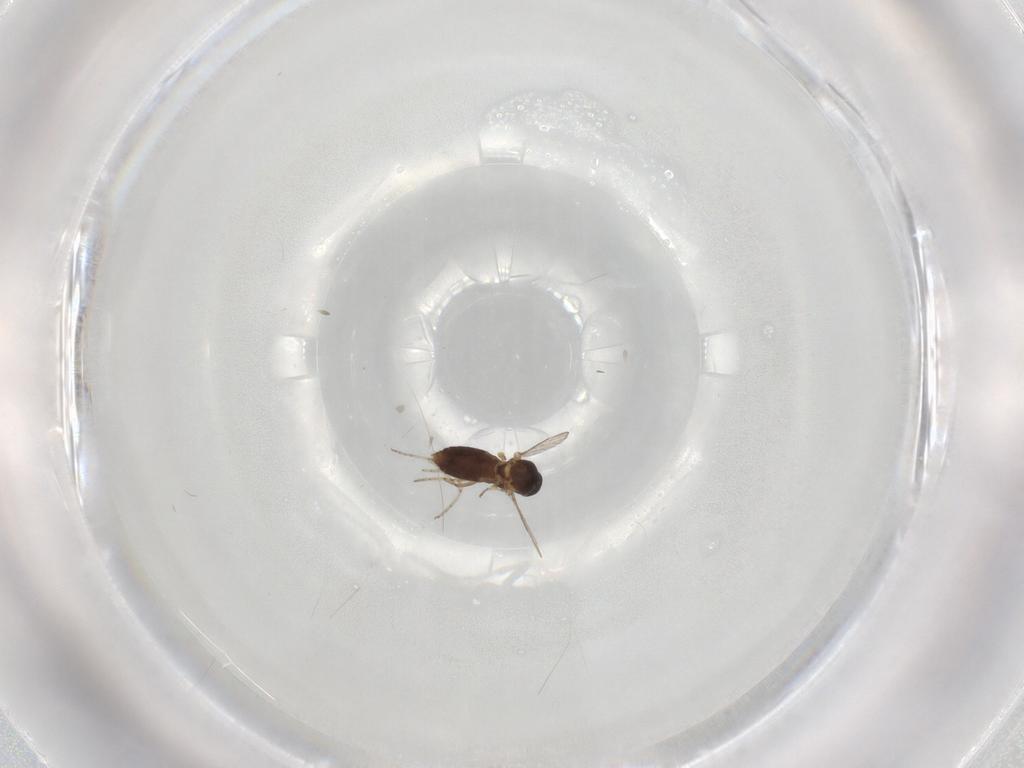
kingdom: Animalia
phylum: Arthropoda
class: Insecta
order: Diptera
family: Ceratopogonidae
